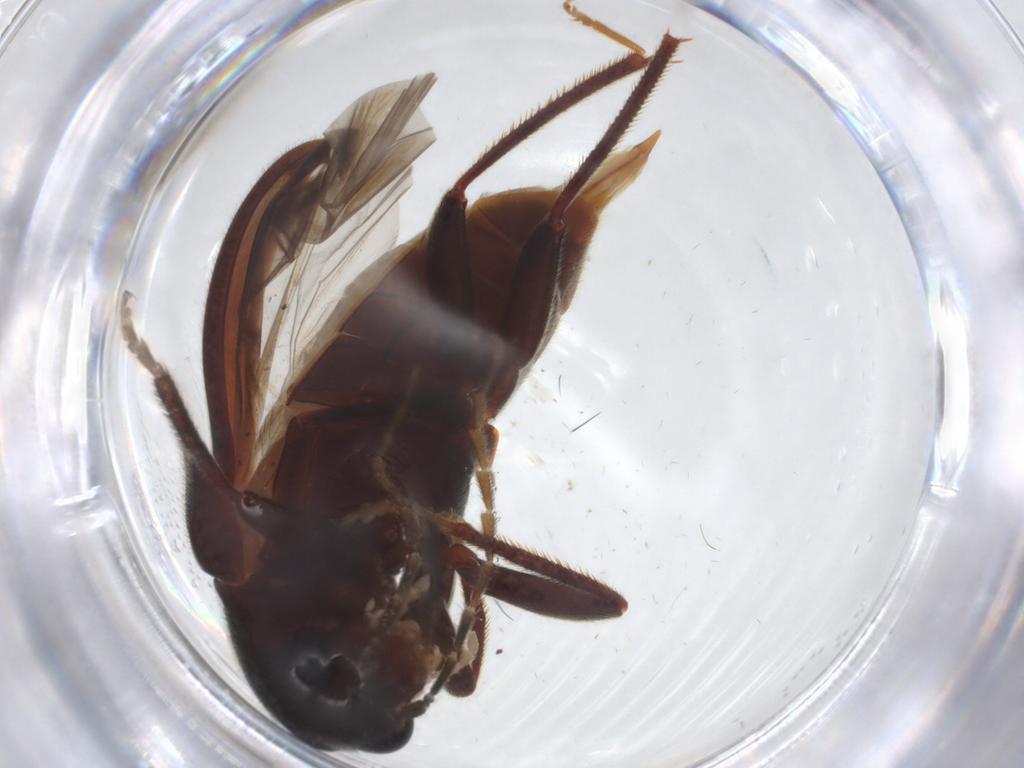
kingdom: Animalia
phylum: Arthropoda
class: Insecta
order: Coleoptera
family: Ptilodactylidae
